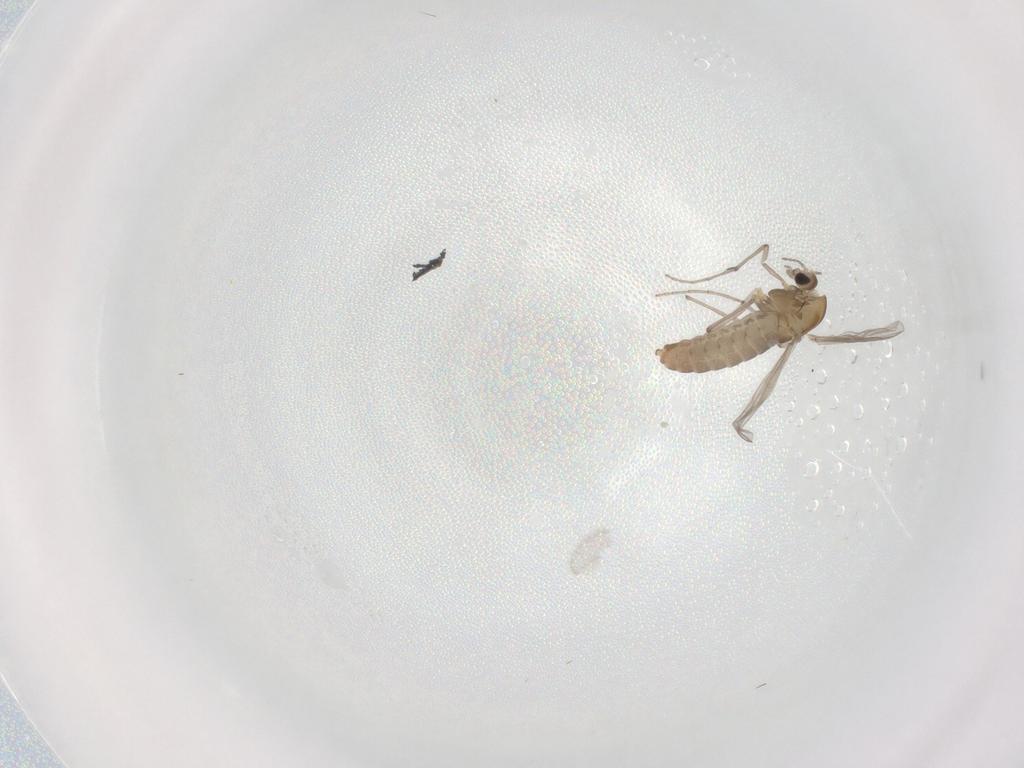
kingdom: Animalia
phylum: Arthropoda
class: Insecta
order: Diptera
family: Chironomidae
